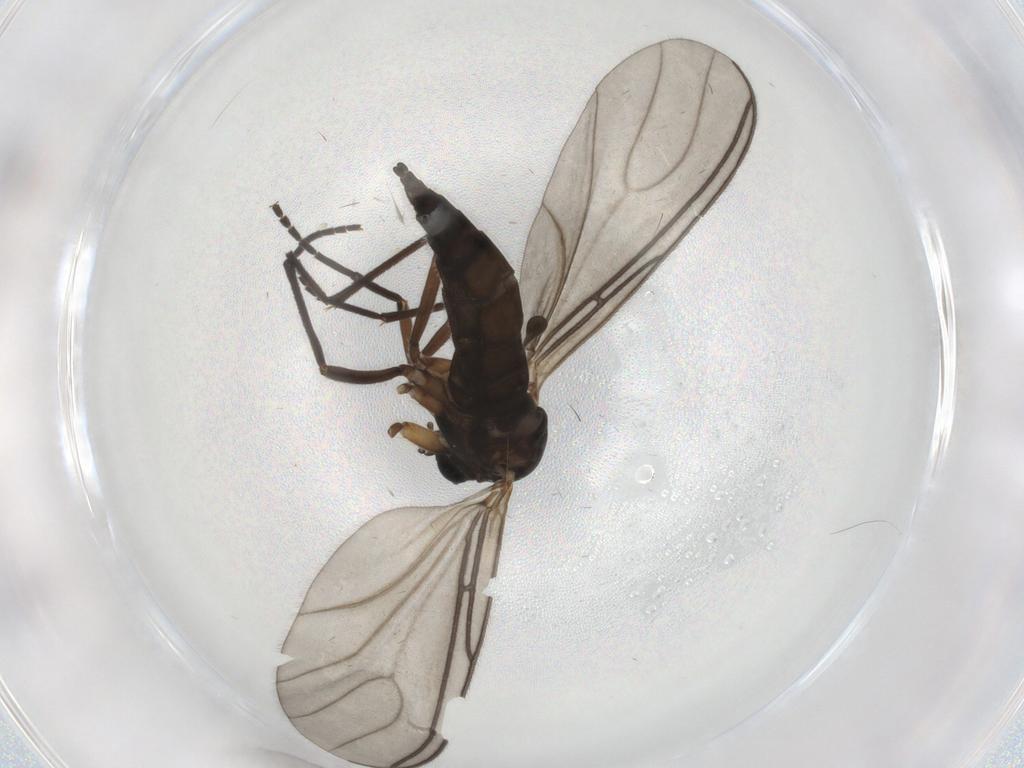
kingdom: Animalia
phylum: Arthropoda
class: Insecta
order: Diptera
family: Sciaridae
